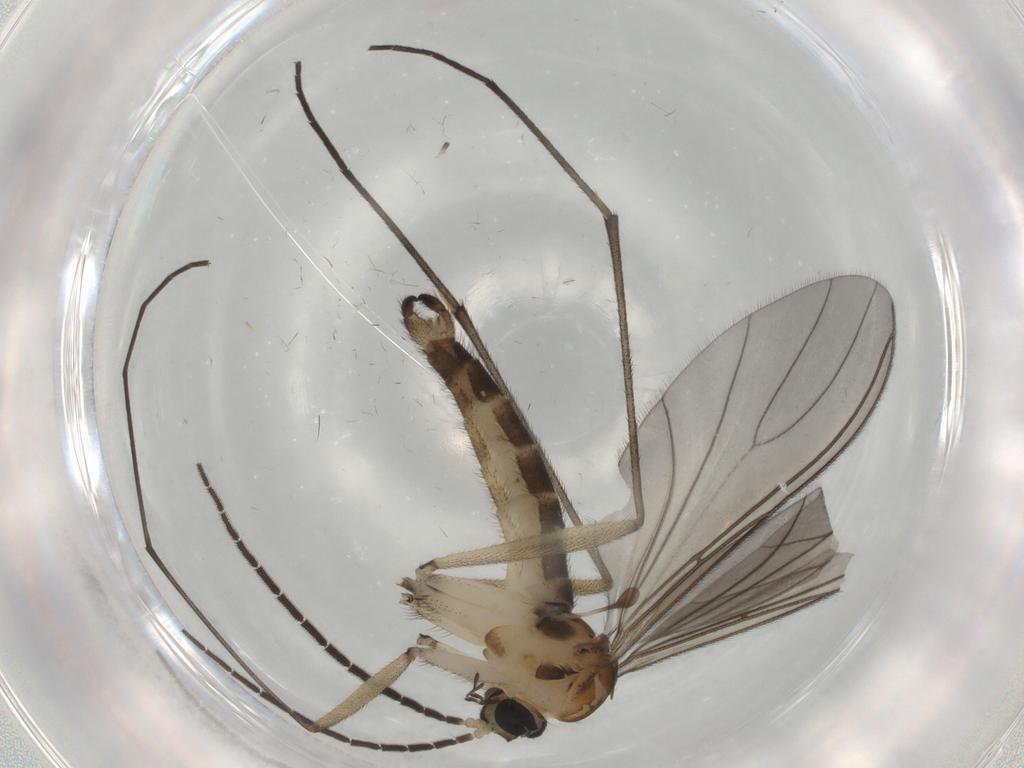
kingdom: Animalia
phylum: Arthropoda
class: Insecta
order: Diptera
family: Sciaridae
